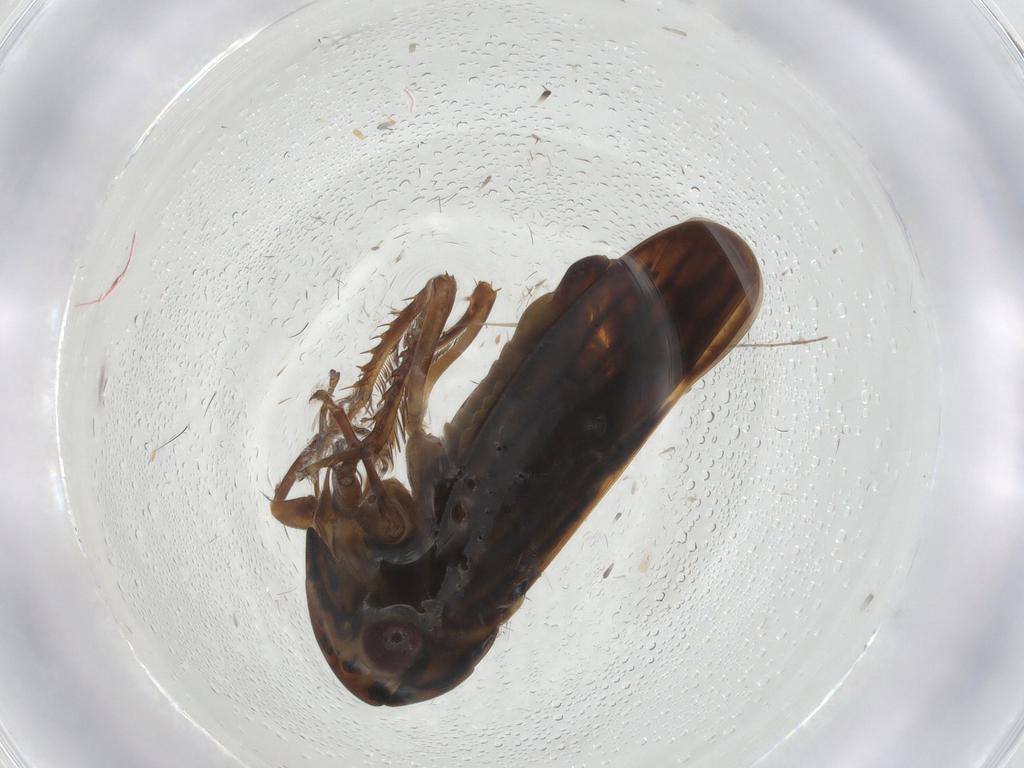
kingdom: Animalia
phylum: Arthropoda
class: Insecta
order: Hemiptera
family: Cicadellidae
